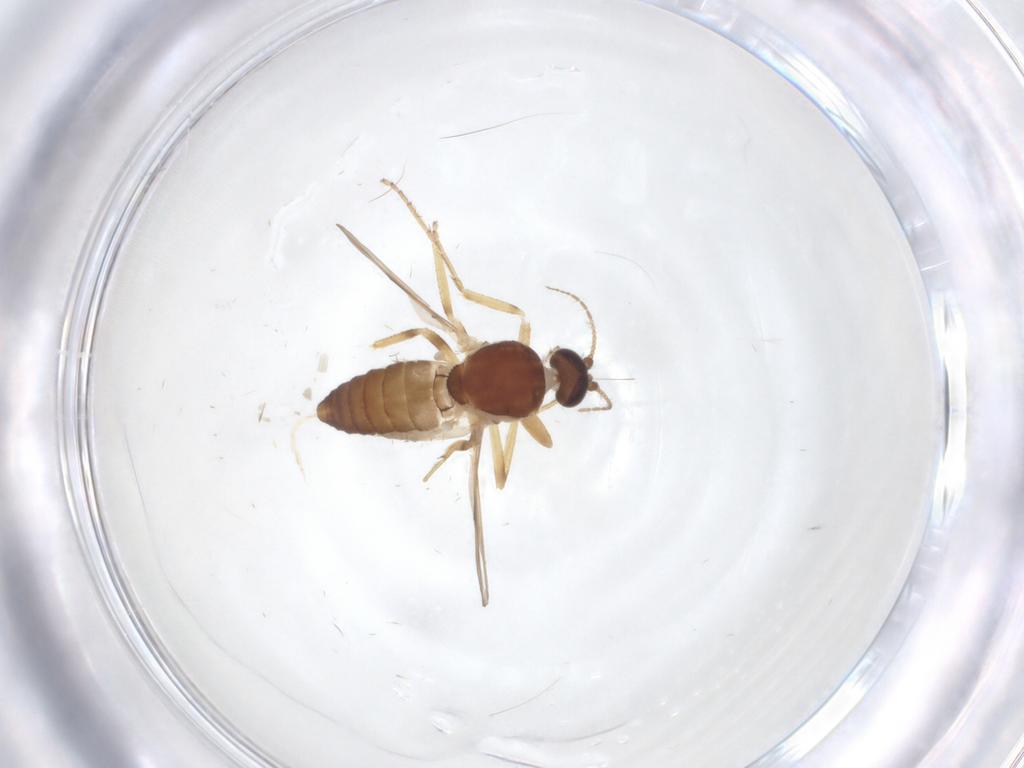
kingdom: Animalia
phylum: Arthropoda
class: Insecta
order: Diptera
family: Ceratopogonidae
